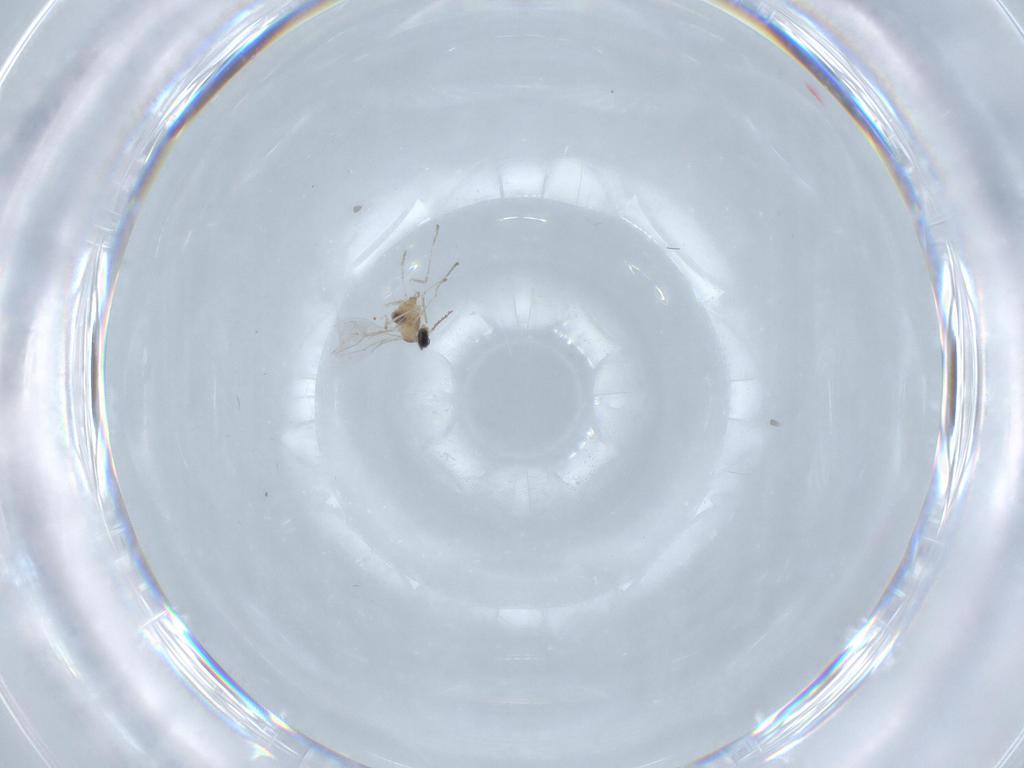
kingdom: Animalia
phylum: Arthropoda
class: Insecta
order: Diptera
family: Cecidomyiidae
